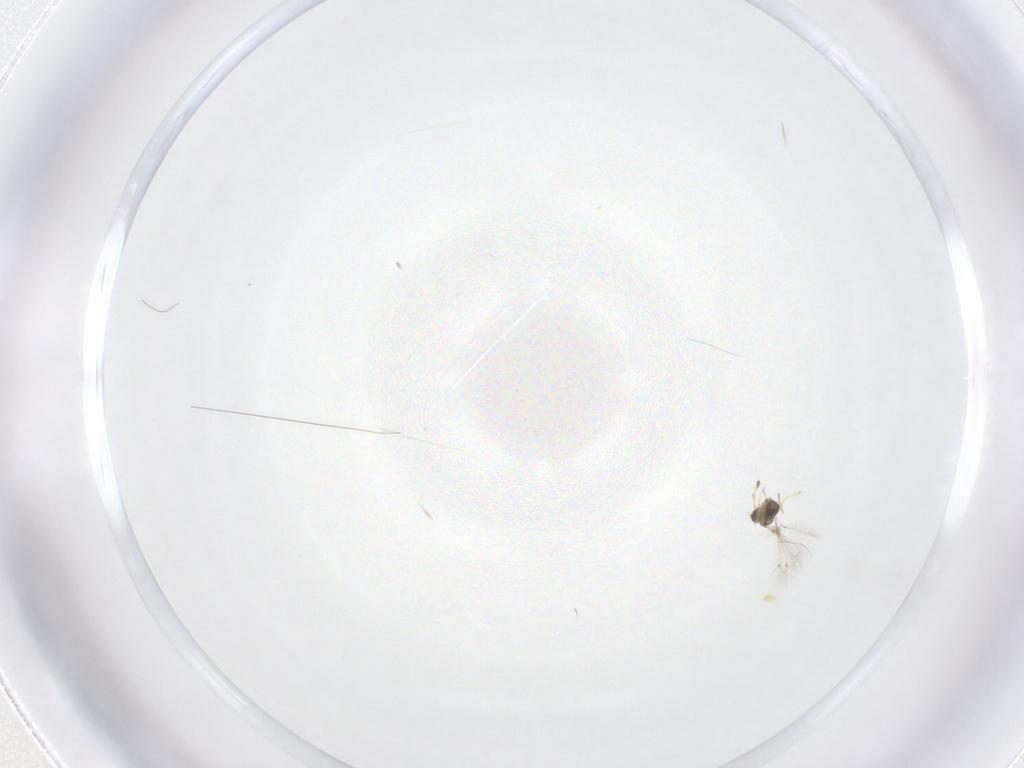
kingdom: Animalia
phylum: Arthropoda
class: Insecta
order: Hymenoptera
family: Mymaridae
